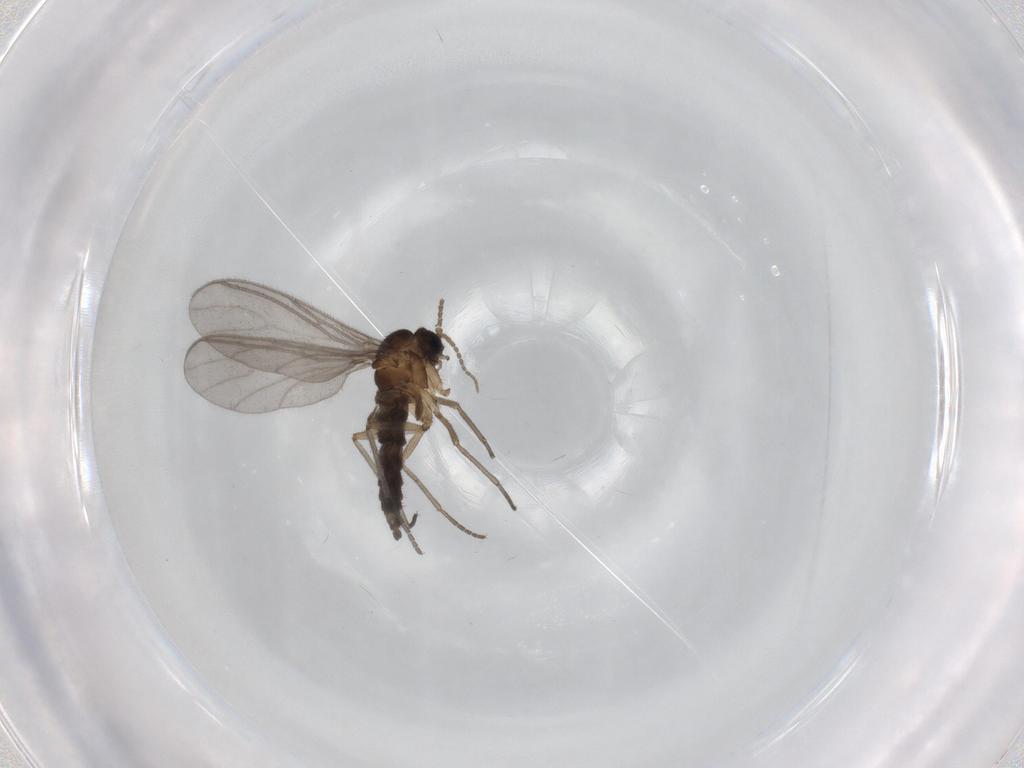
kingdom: Animalia
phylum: Arthropoda
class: Insecta
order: Diptera
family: Sciaridae
